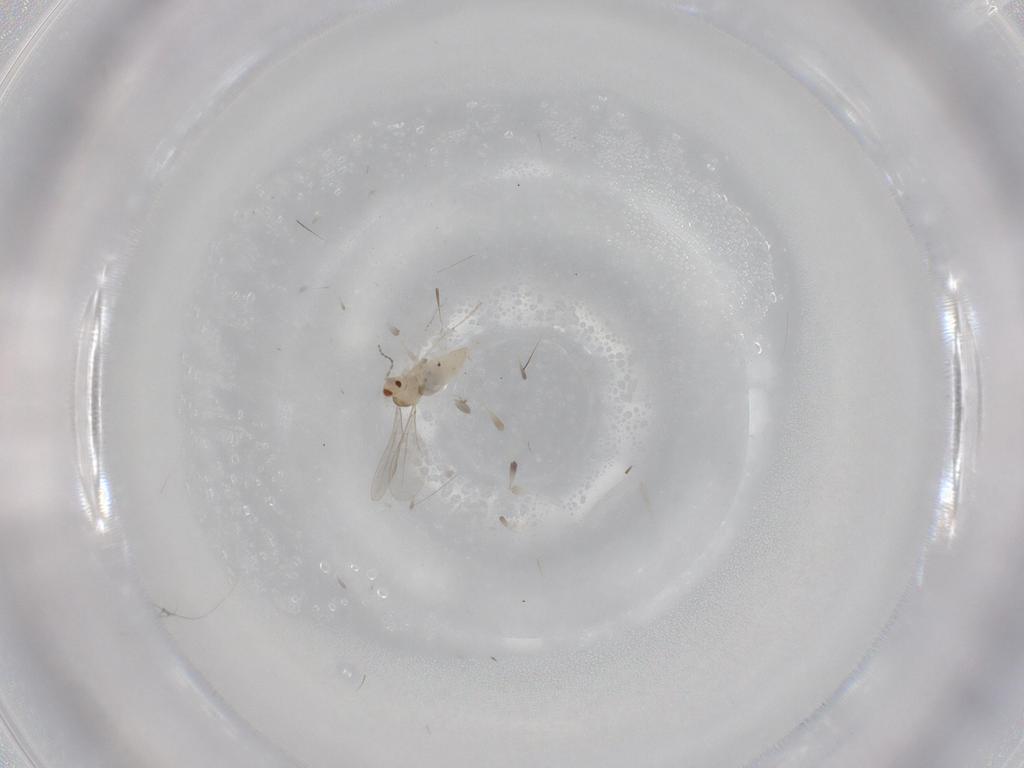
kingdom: Animalia
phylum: Arthropoda
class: Insecta
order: Diptera
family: Cecidomyiidae
